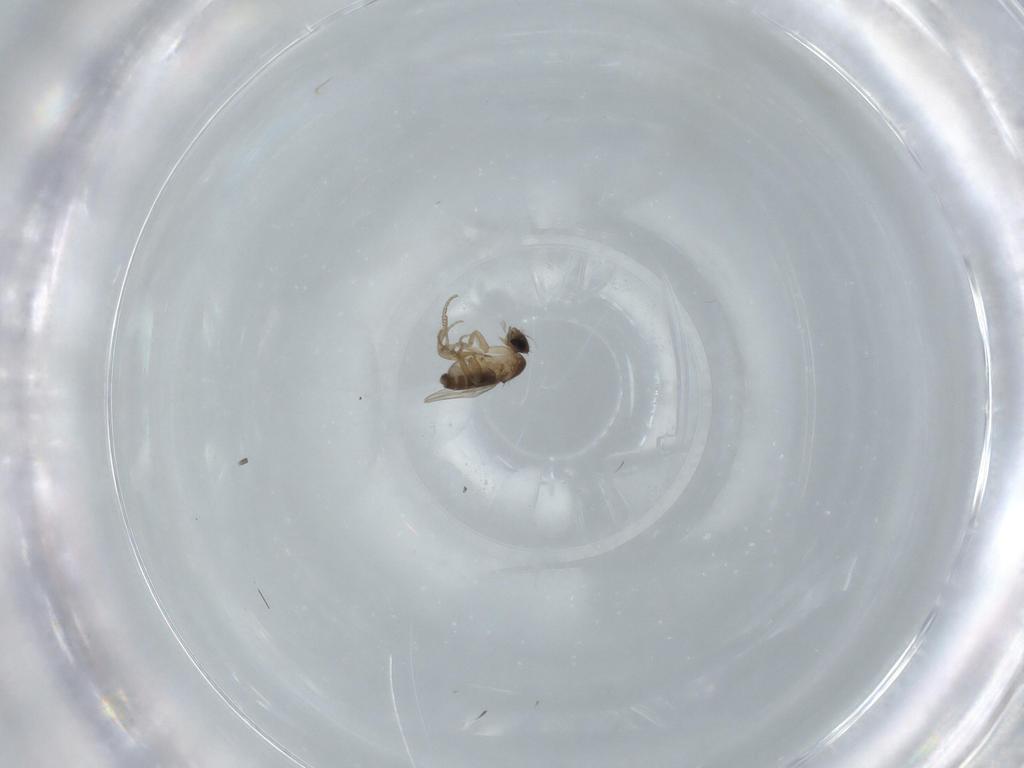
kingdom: Animalia
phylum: Arthropoda
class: Insecta
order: Diptera
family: Phoridae
